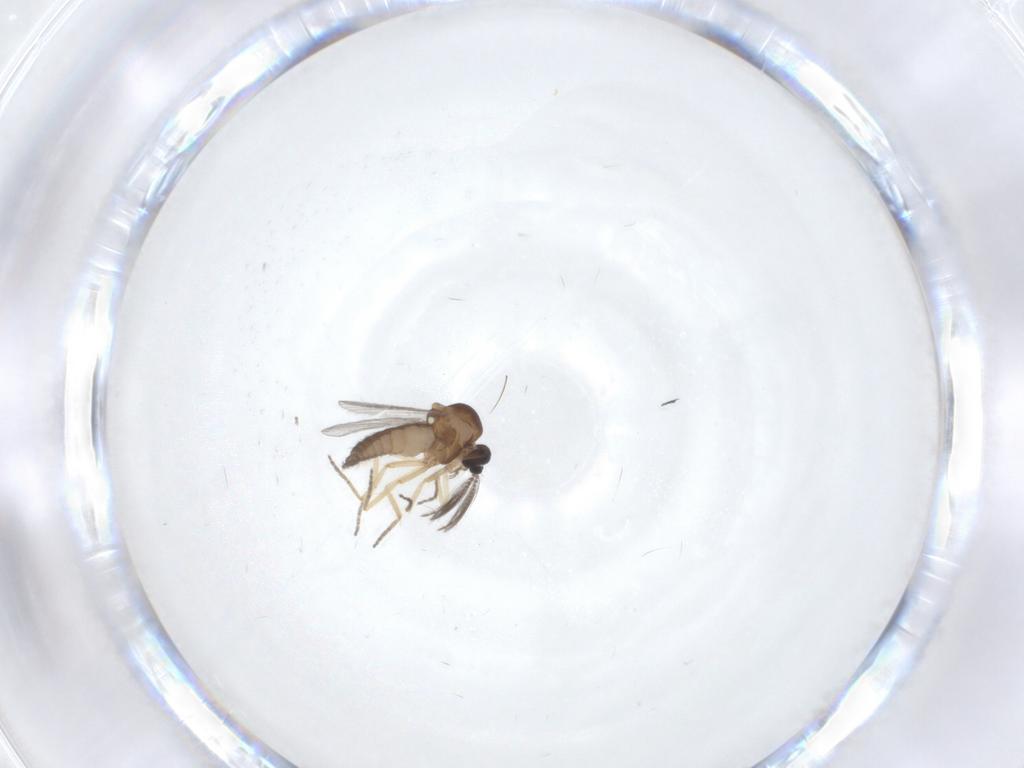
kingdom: Animalia
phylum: Arthropoda
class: Insecta
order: Diptera
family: Ceratopogonidae
